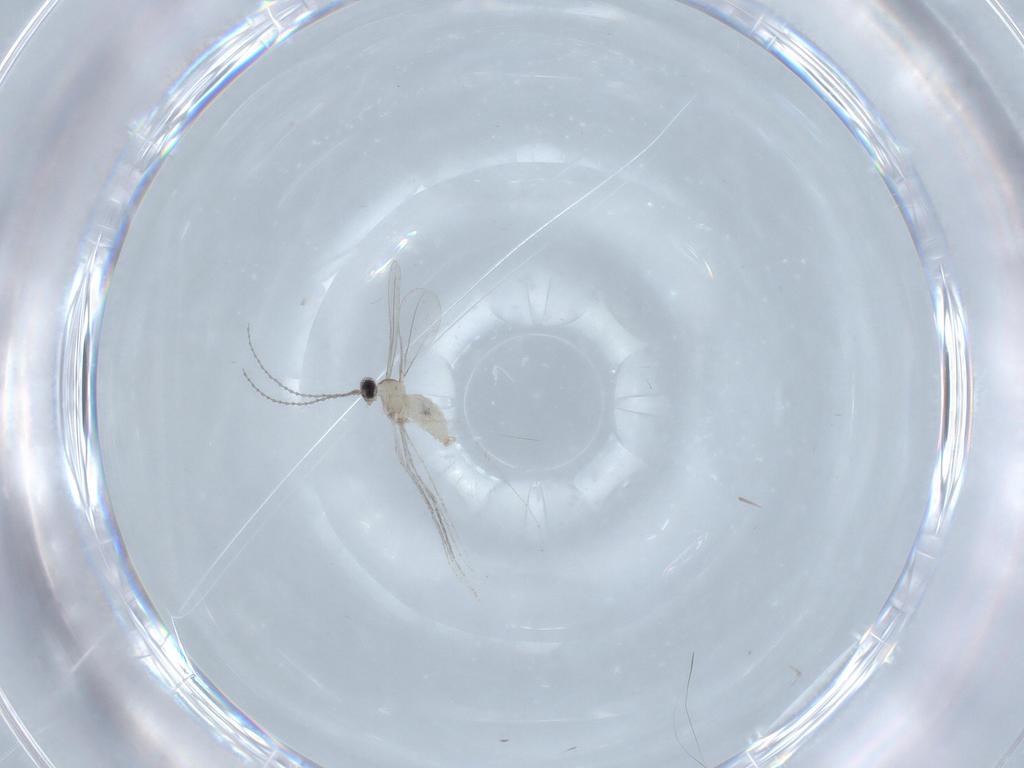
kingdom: Animalia
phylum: Arthropoda
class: Insecta
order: Diptera
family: Cecidomyiidae
